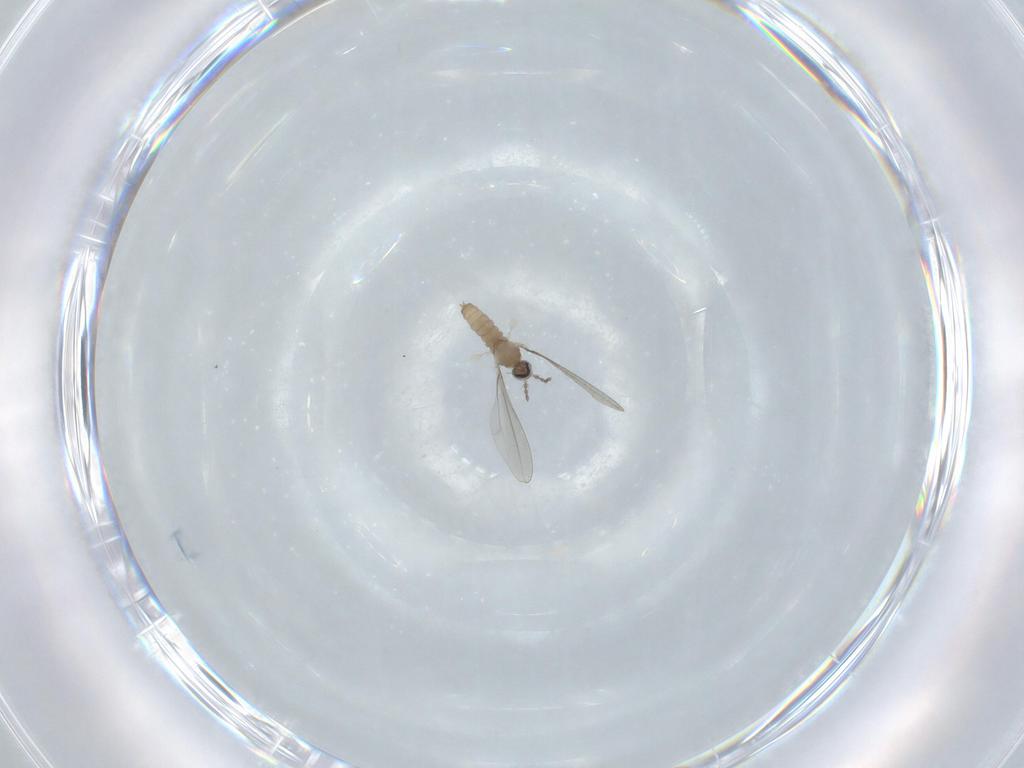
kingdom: Animalia
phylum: Arthropoda
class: Insecta
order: Diptera
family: Cecidomyiidae
